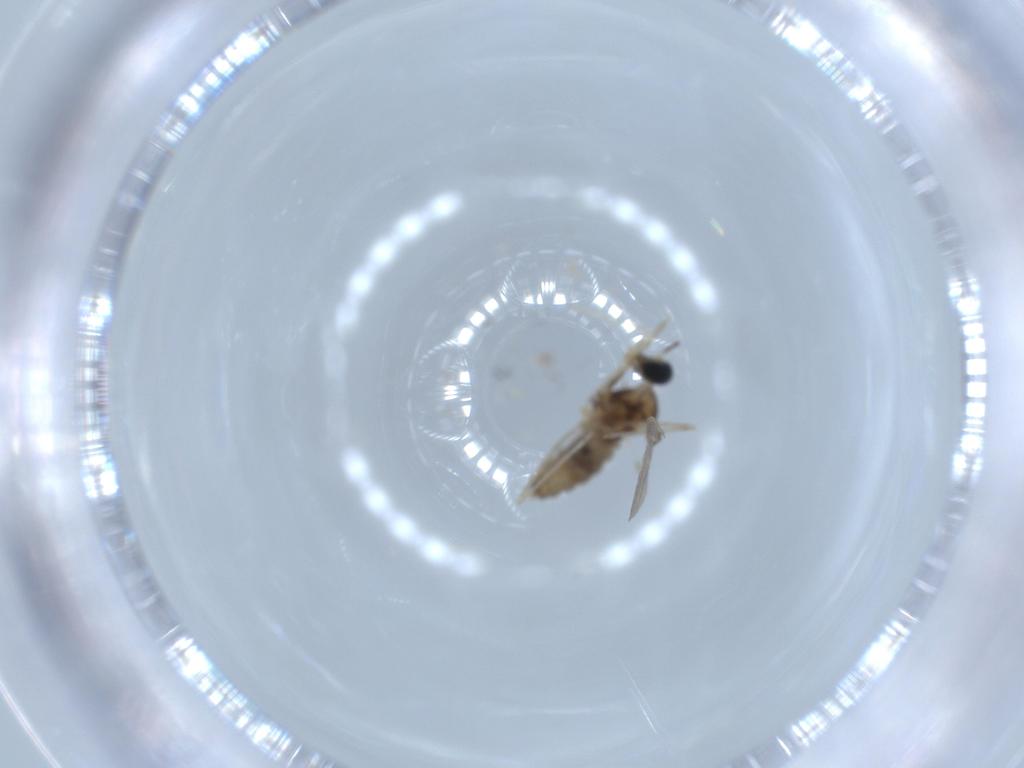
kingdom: Animalia
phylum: Arthropoda
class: Insecta
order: Diptera
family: Cecidomyiidae
